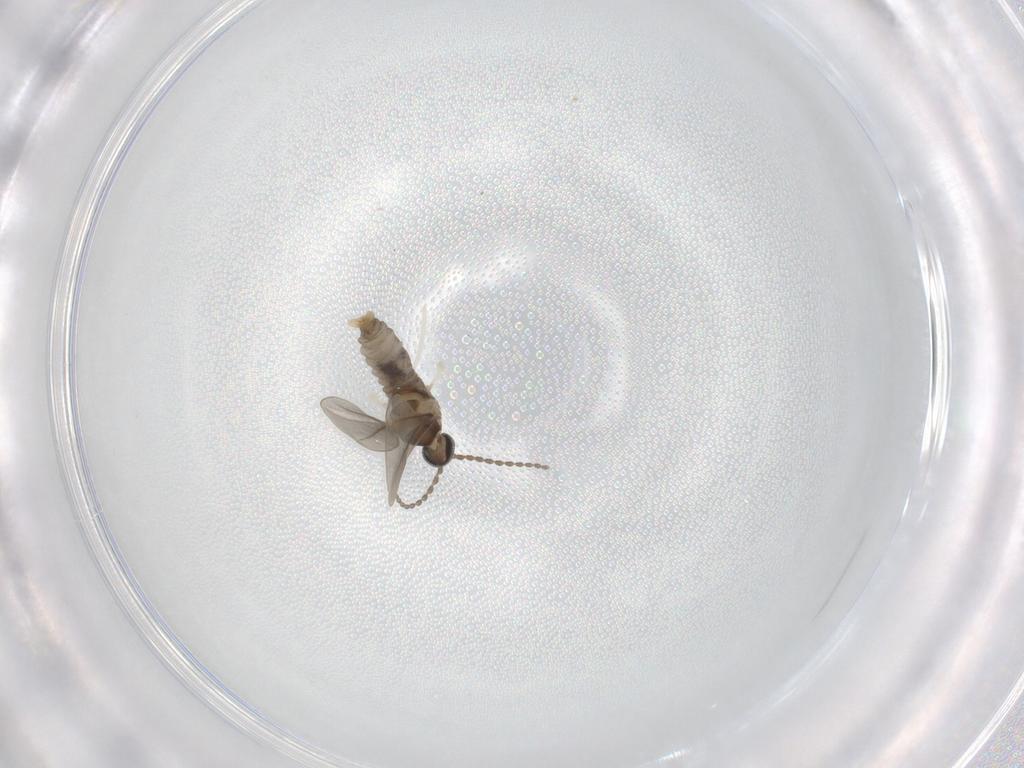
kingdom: Animalia
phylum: Arthropoda
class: Insecta
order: Diptera
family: Cecidomyiidae
